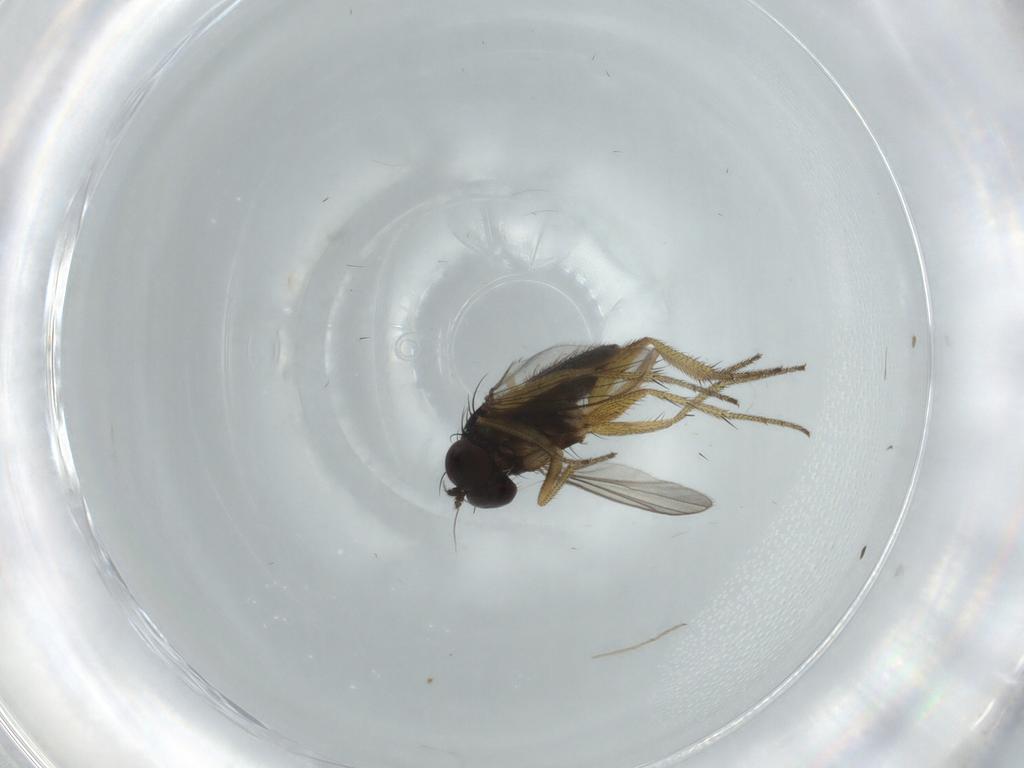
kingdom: Animalia
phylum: Arthropoda
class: Insecta
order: Diptera
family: Dolichopodidae
